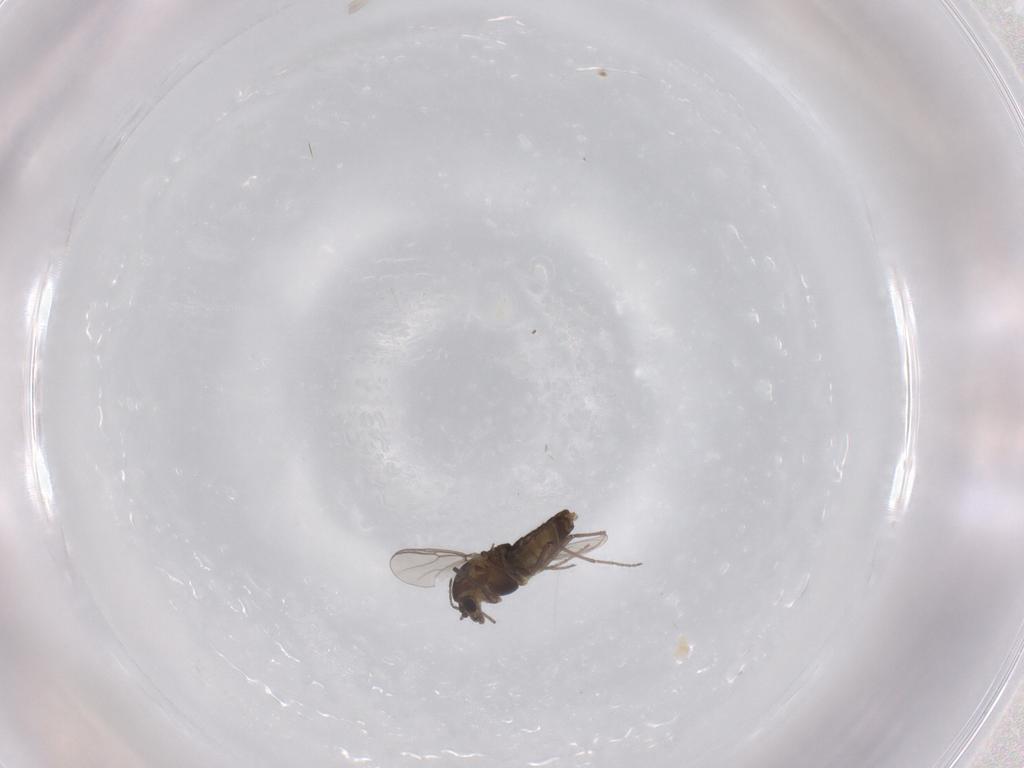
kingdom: Animalia
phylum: Arthropoda
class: Insecta
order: Diptera
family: Chironomidae
